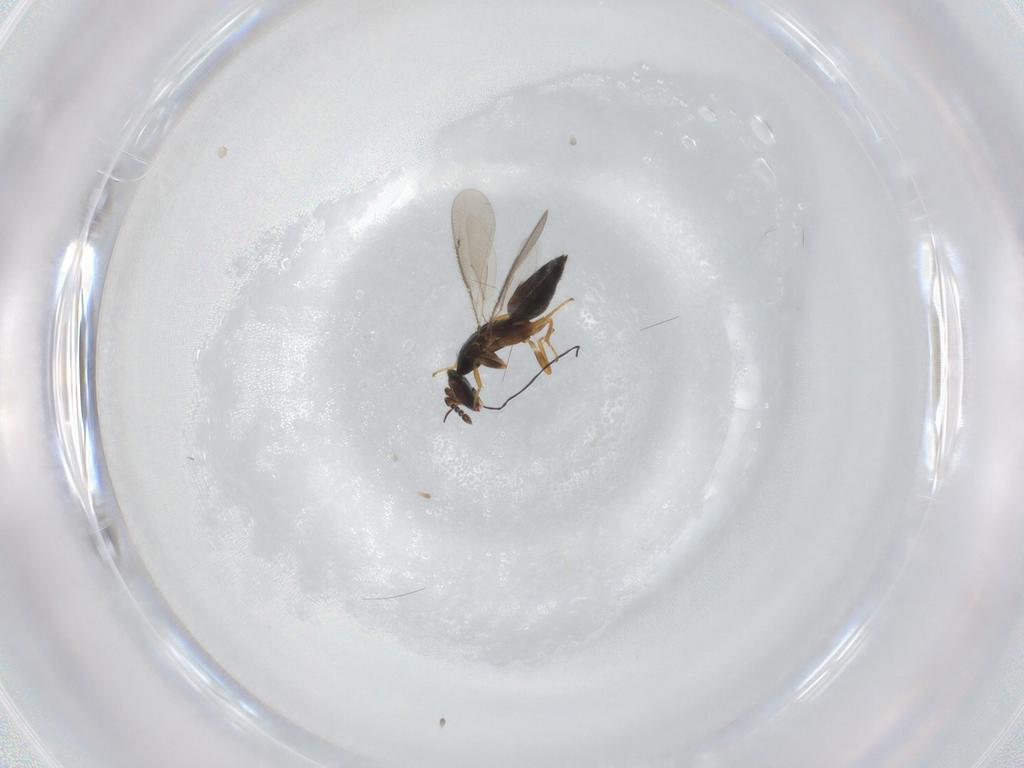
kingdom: Animalia
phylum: Arthropoda
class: Insecta
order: Hymenoptera
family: Eulophidae
